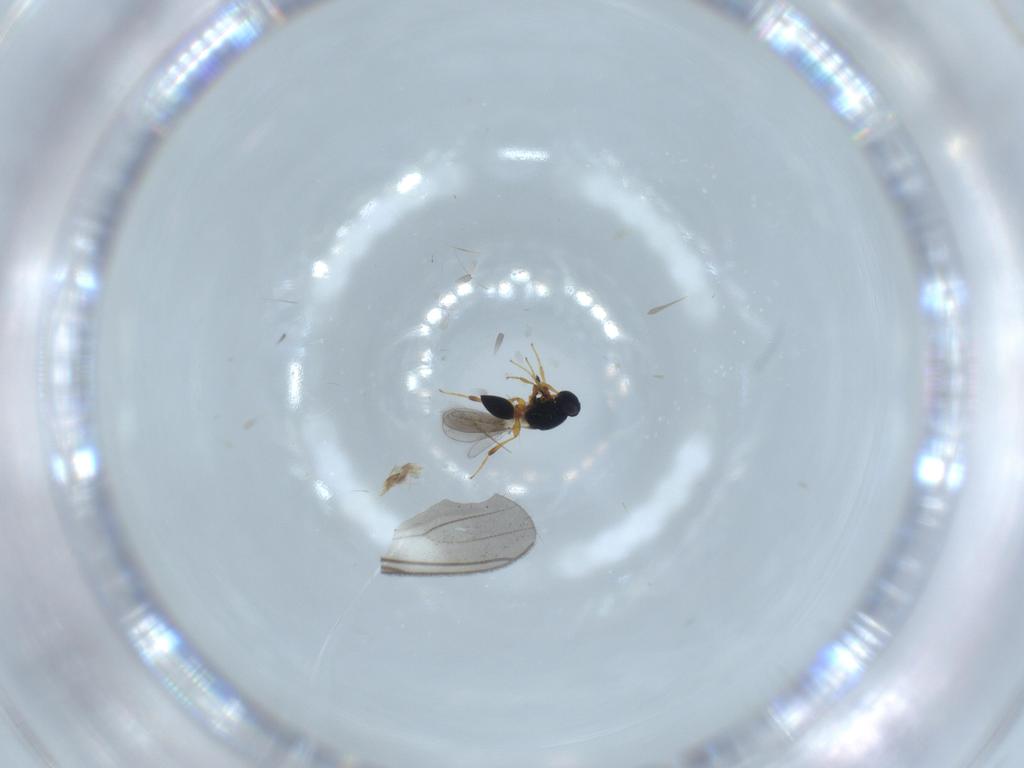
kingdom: Animalia
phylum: Arthropoda
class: Insecta
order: Hymenoptera
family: Platygastridae
